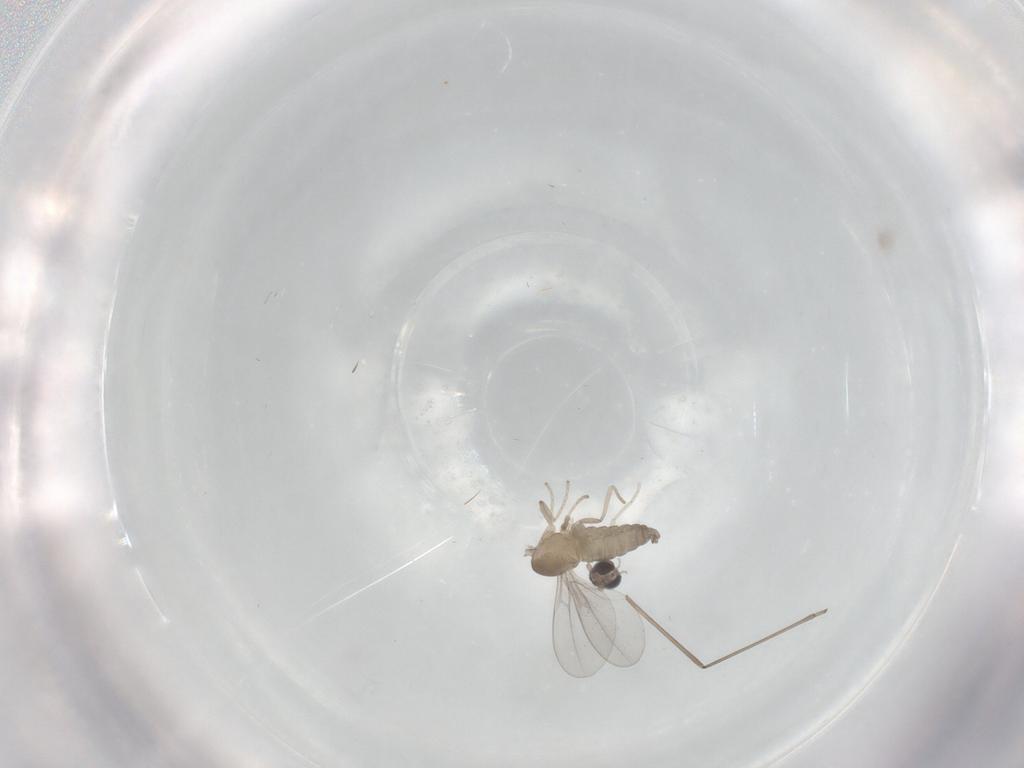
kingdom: Animalia
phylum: Arthropoda
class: Insecta
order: Diptera
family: Cecidomyiidae
